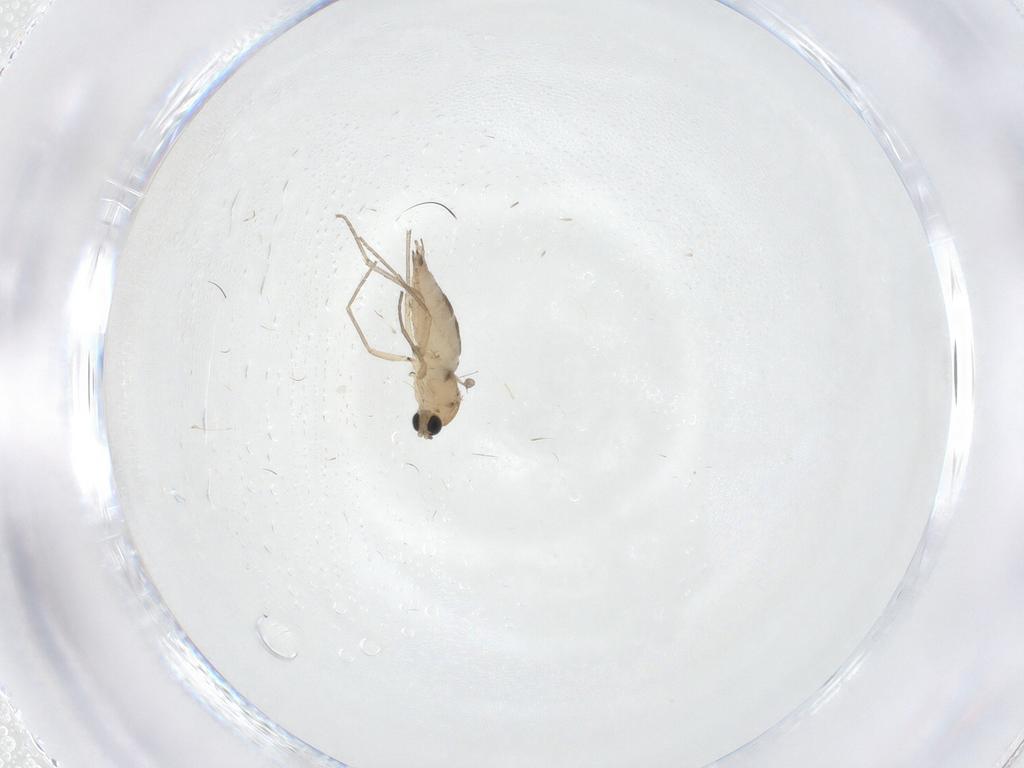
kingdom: Animalia
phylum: Arthropoda
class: Insecta
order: Diptera
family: Sciaridae
